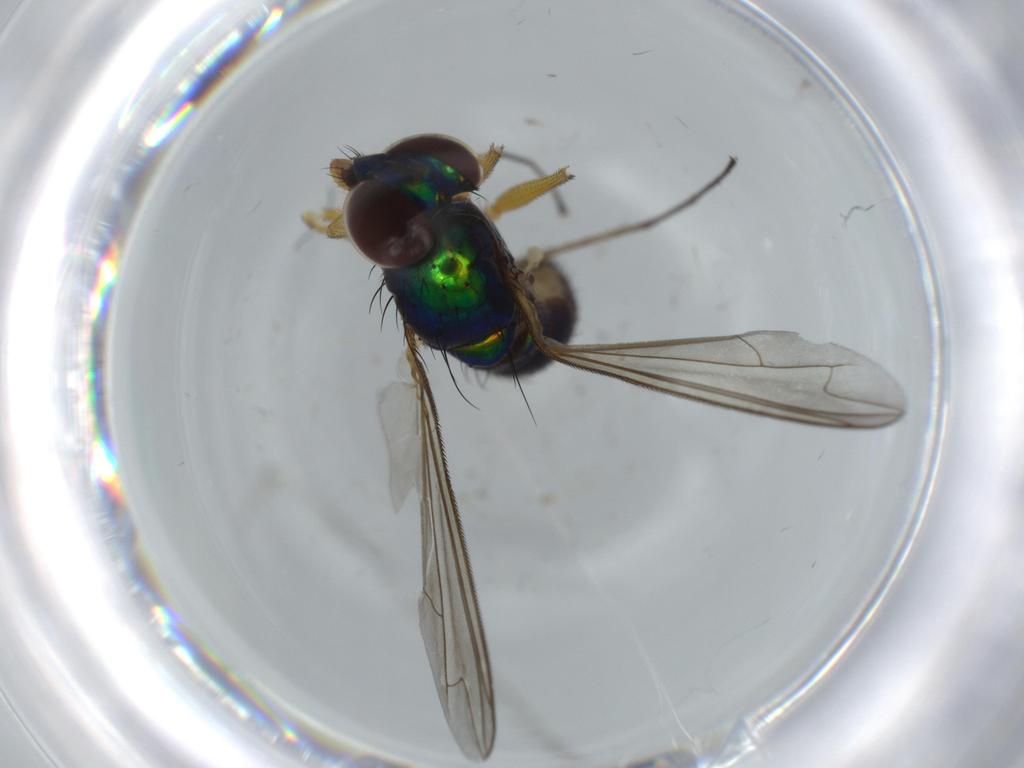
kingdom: Animalia
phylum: Arthropoda
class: Insecta
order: Diptera
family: Dolichopodidae
